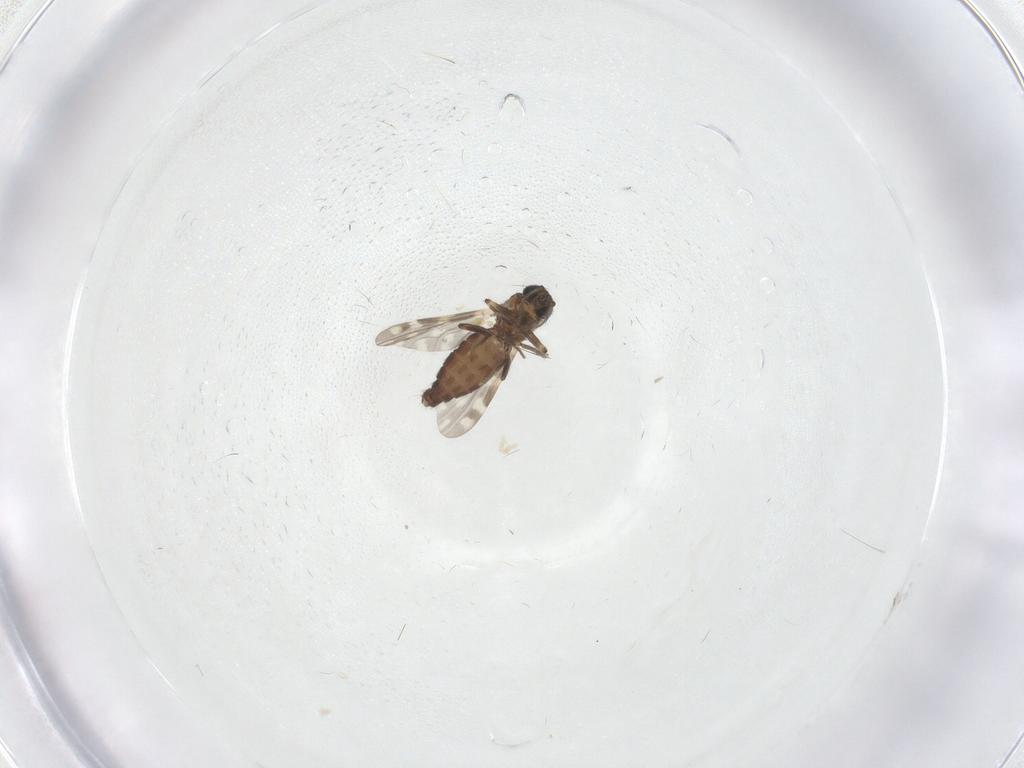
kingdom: Animalia
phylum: Arthropoda
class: Insecta
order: Diptera
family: Ceratopogonidae
